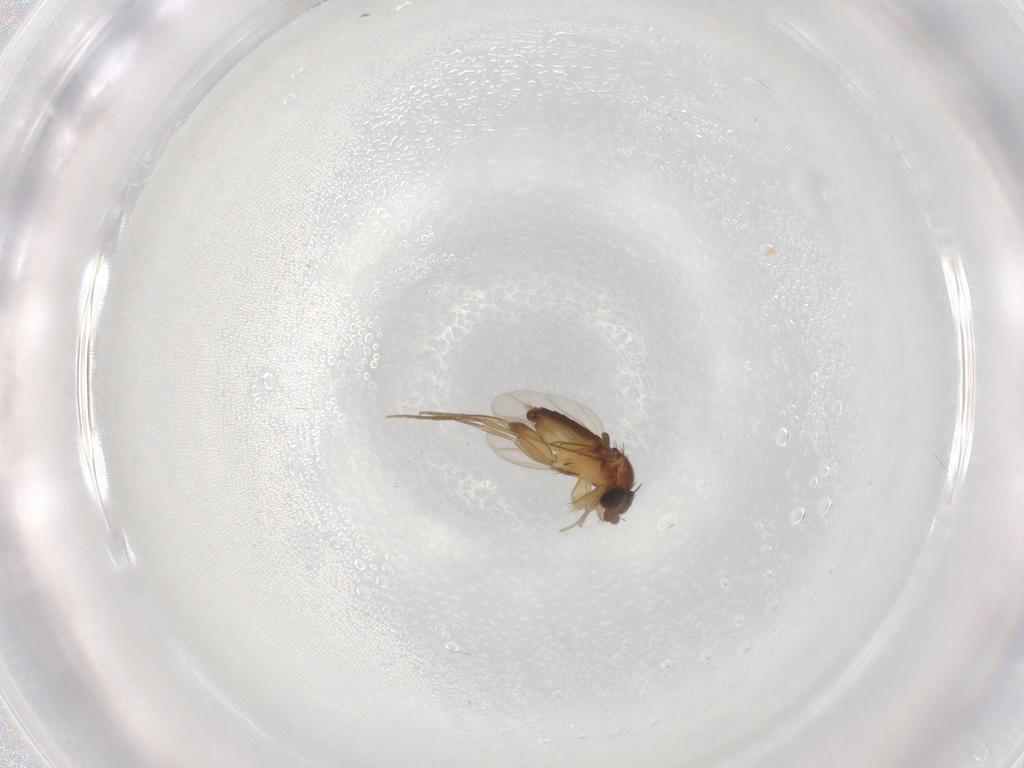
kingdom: Animalia
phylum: Arthropoda
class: Insecta
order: Diptera
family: Phoridae
